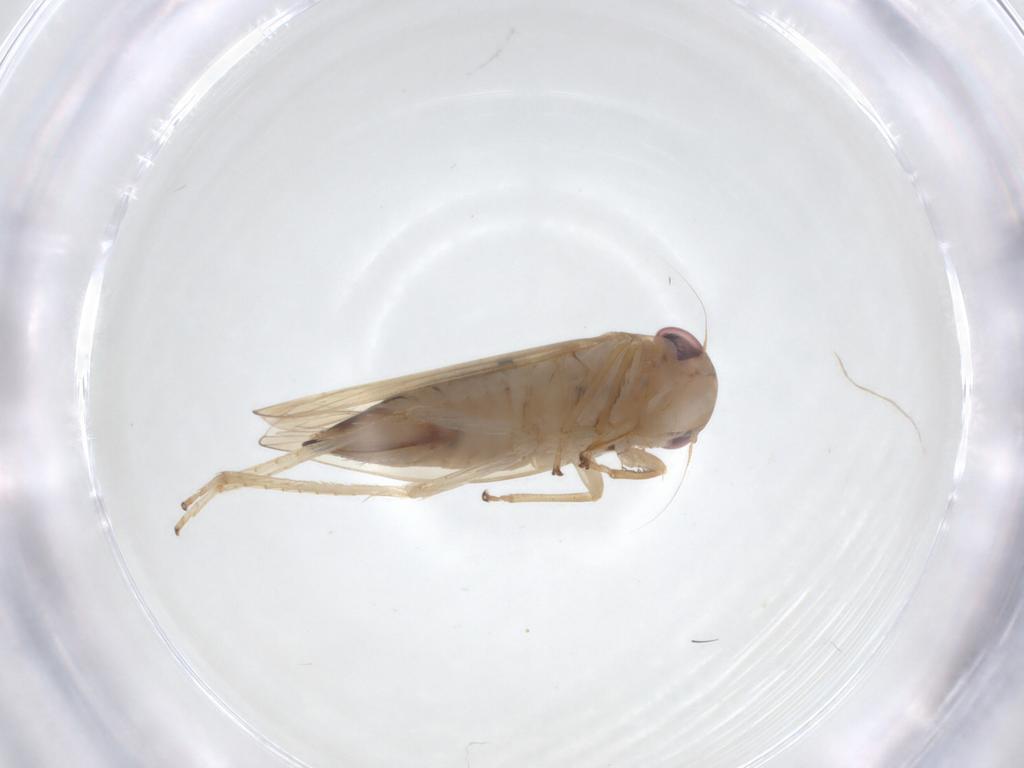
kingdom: Animalia
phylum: Arthropoda
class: Insecta
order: Hemiptera
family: Cicadellidae
